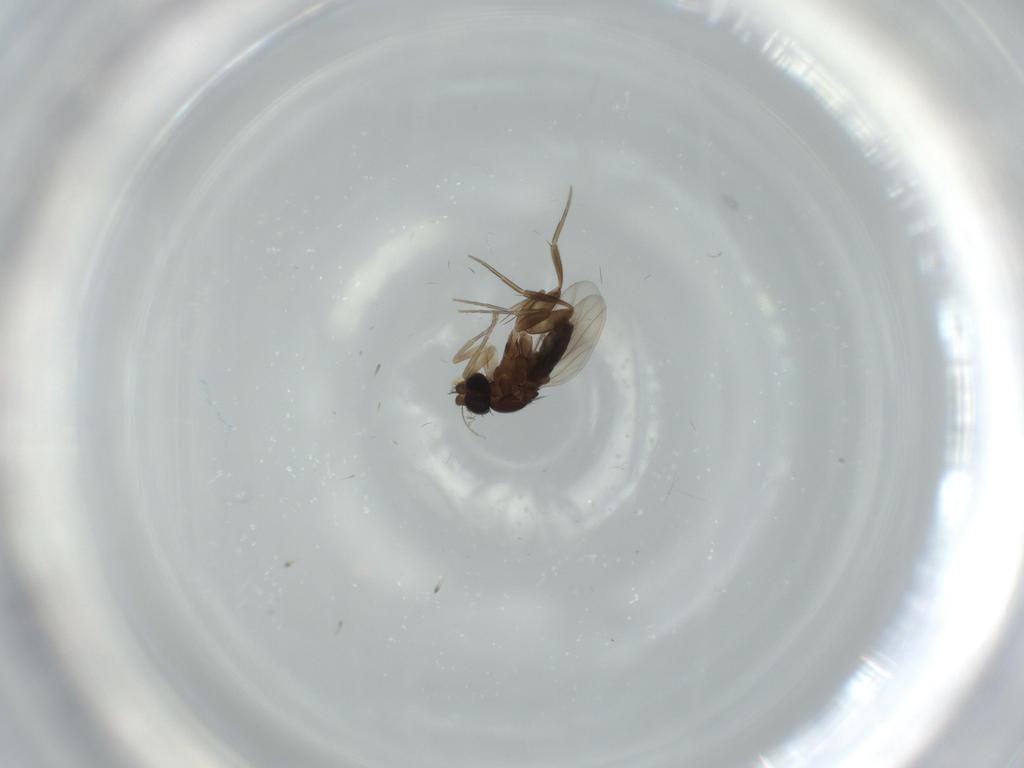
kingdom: Animalia
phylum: Arthropoda
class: Insecta
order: Diptera
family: Phoridae
